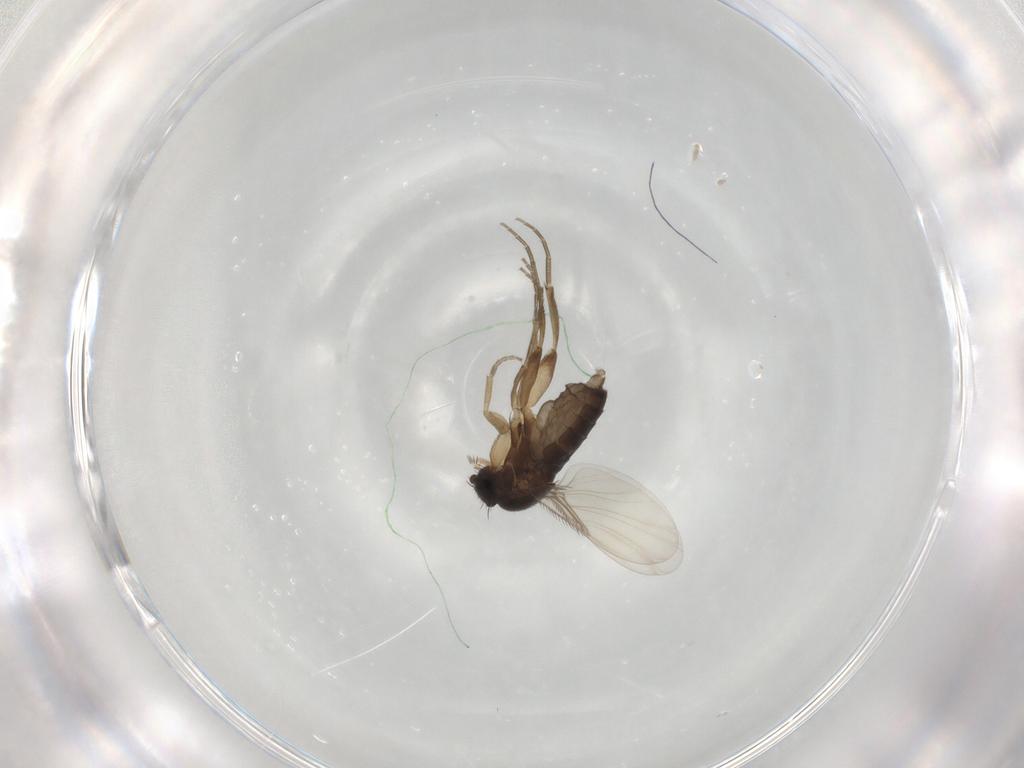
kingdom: Animalia
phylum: Arthropoda
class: Insecta
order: Diptera
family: Phoridae
